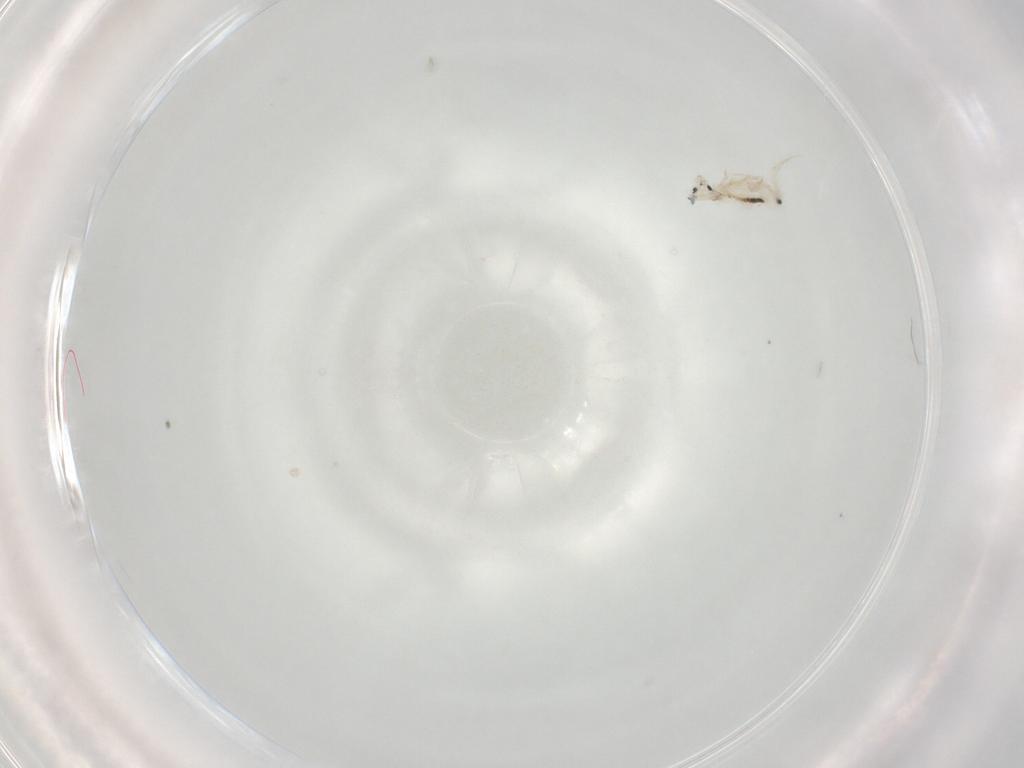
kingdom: Animalia
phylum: Arthropoda
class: Collembola
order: Entomobryomorpha
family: Entomobryidae
